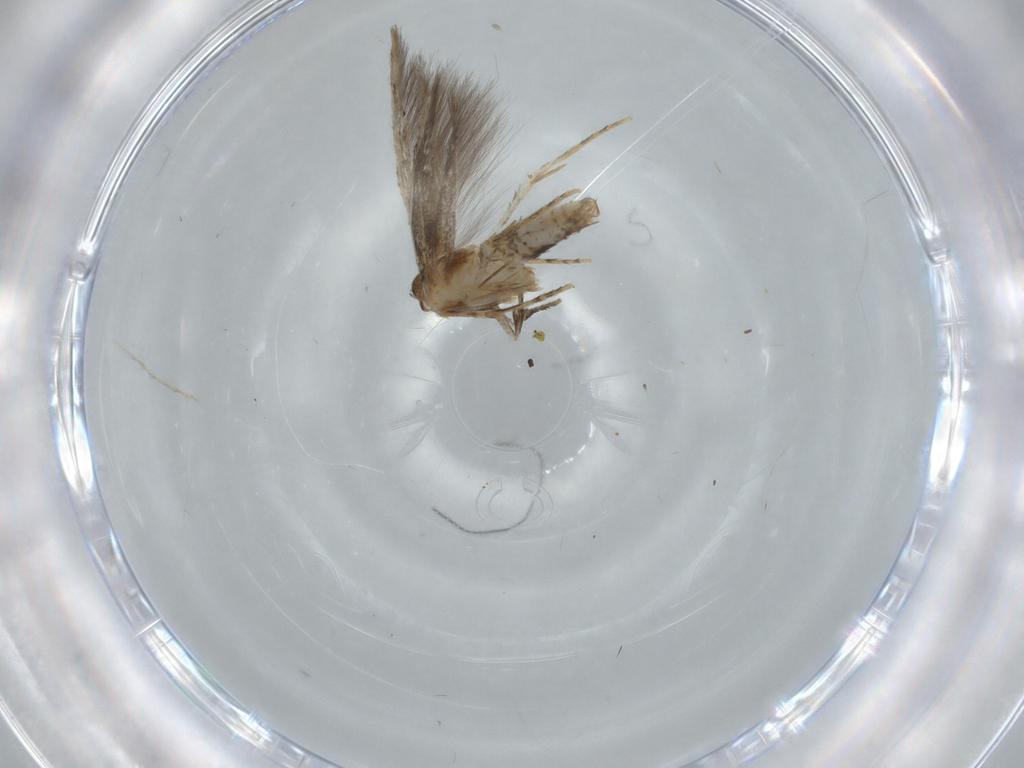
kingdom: Animalia
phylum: Arthropoda
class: Insecta
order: Lepidoptera
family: Tineidae
